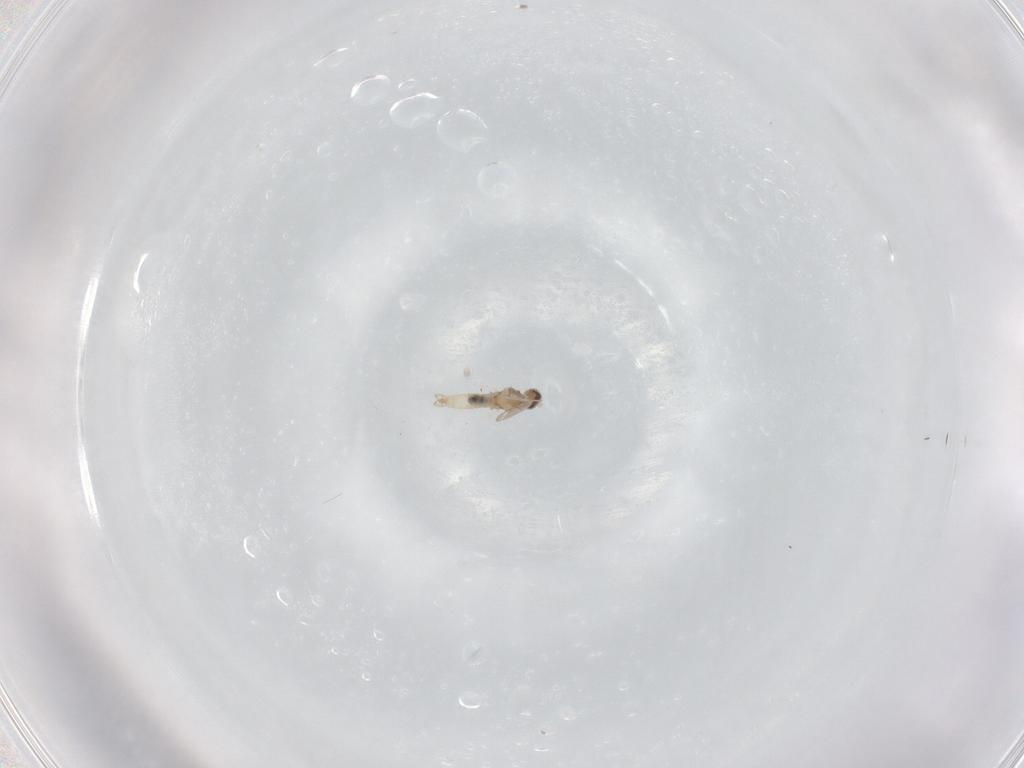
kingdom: Animalia
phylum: Arthropoda
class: Insecta
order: Diptera
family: Cecidomyiidae
